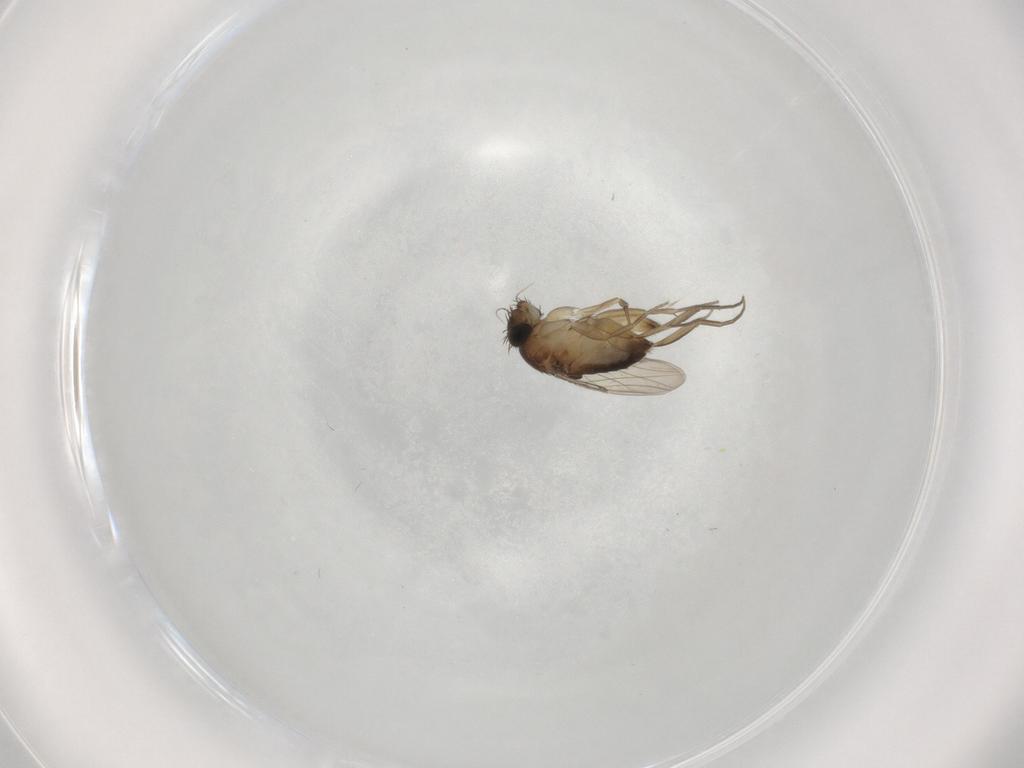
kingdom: Animalia
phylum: Arthropoda
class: Insecta
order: Diptera
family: Phoridae
